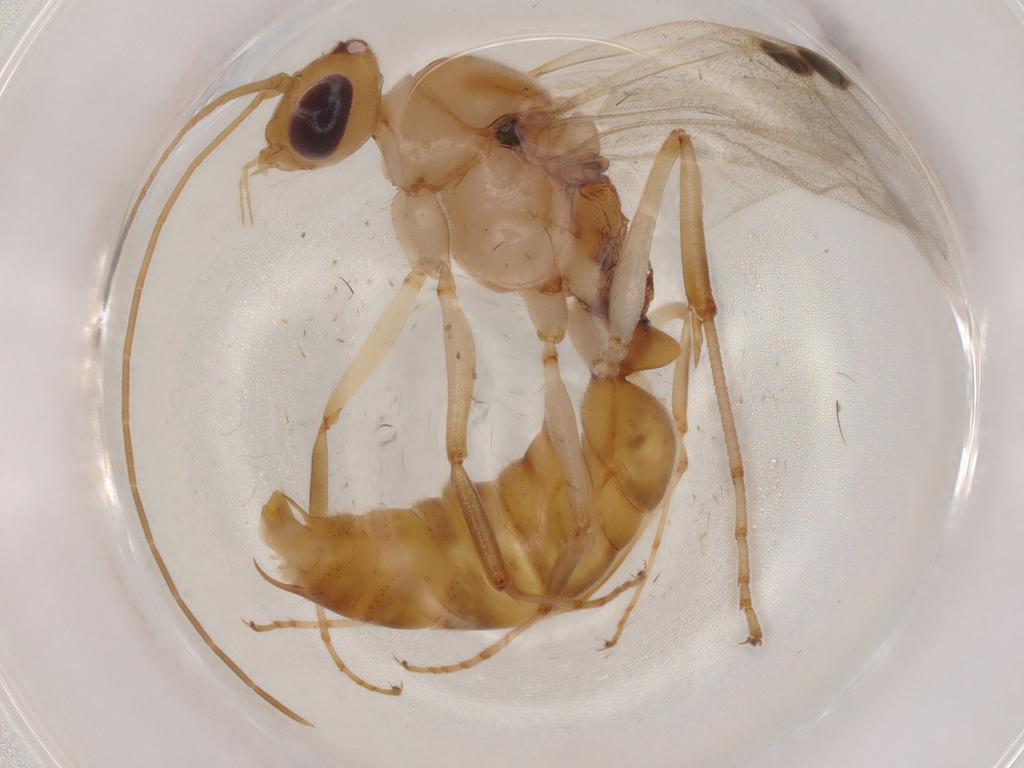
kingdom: Animalia
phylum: Arthropoda
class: Insecta
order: Hymenoptera
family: Formicidae
